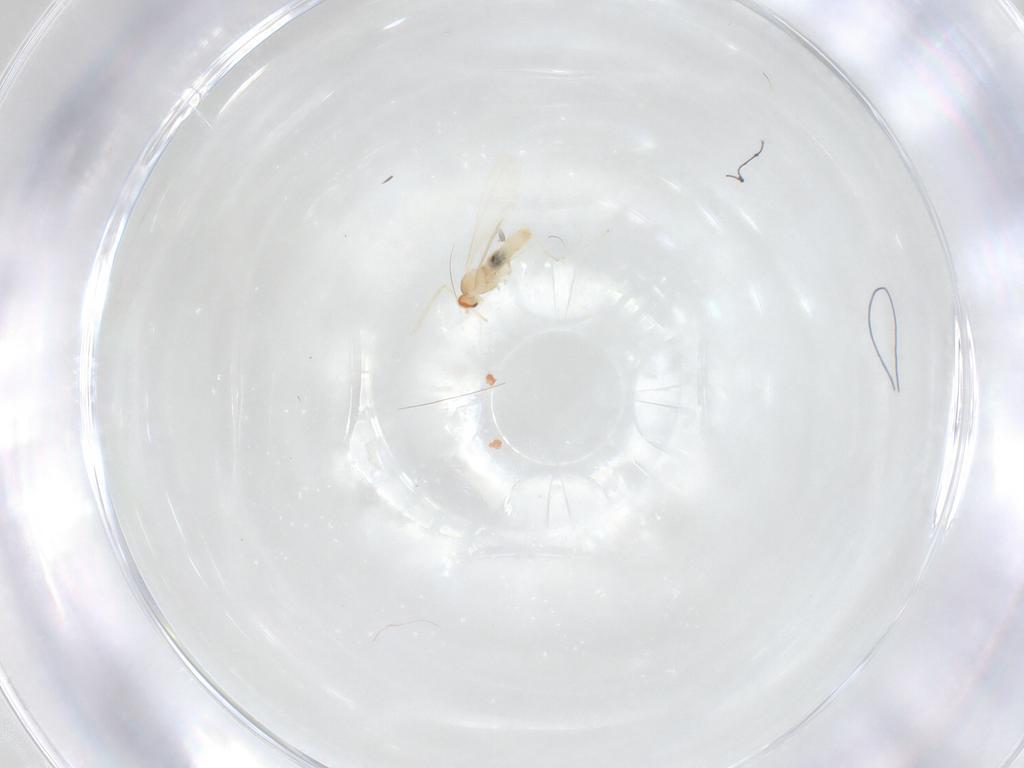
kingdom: Animalia
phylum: Arthropoda
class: Insecta
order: Diptera
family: Cecidomyiidae
